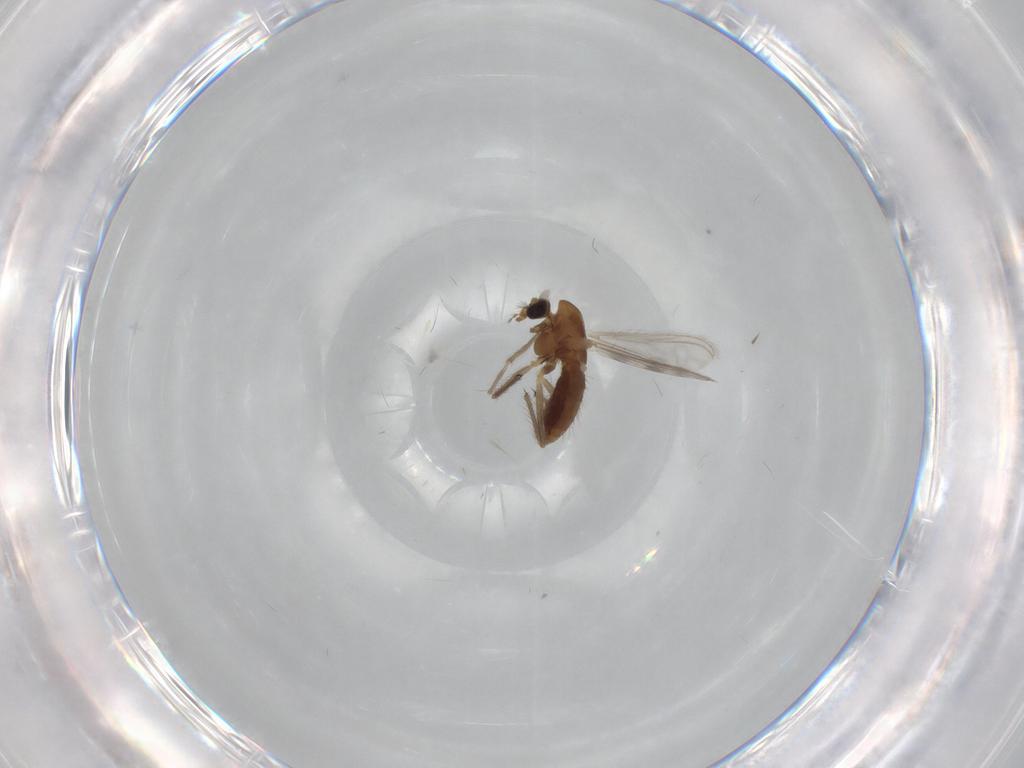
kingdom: Animalia
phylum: Arthropoda
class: Insecta
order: Diptera
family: Chironomidae
